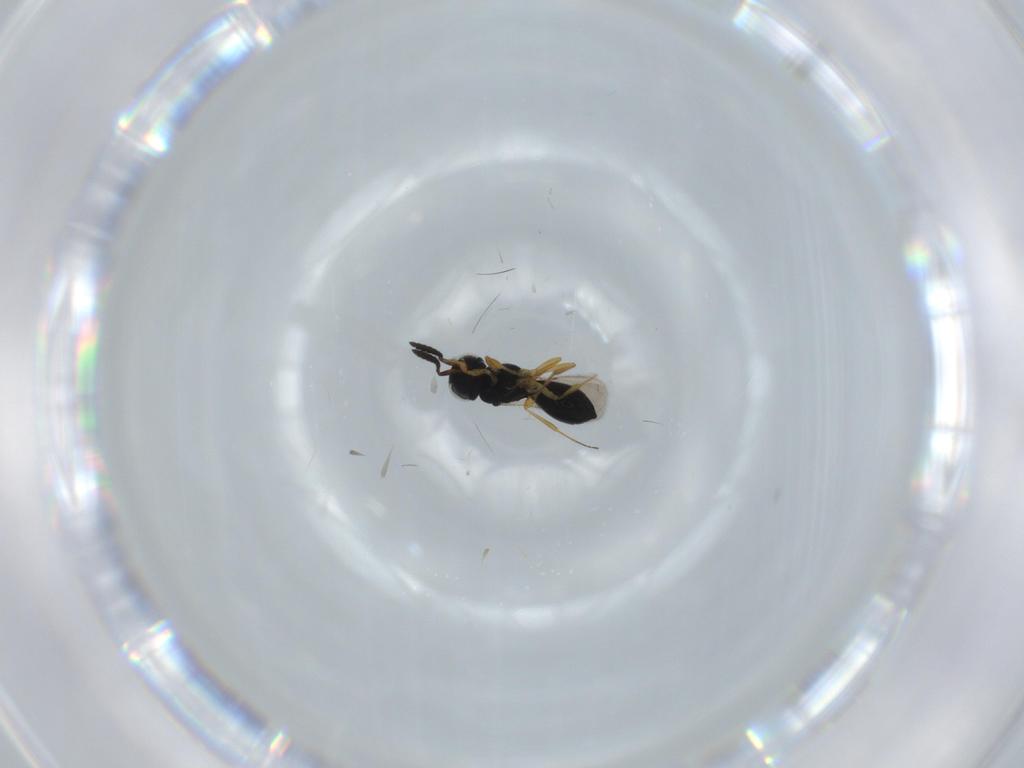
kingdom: Animalia
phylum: Arthropoda
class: Insecta
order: Hymenoptera
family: Scelionidae
